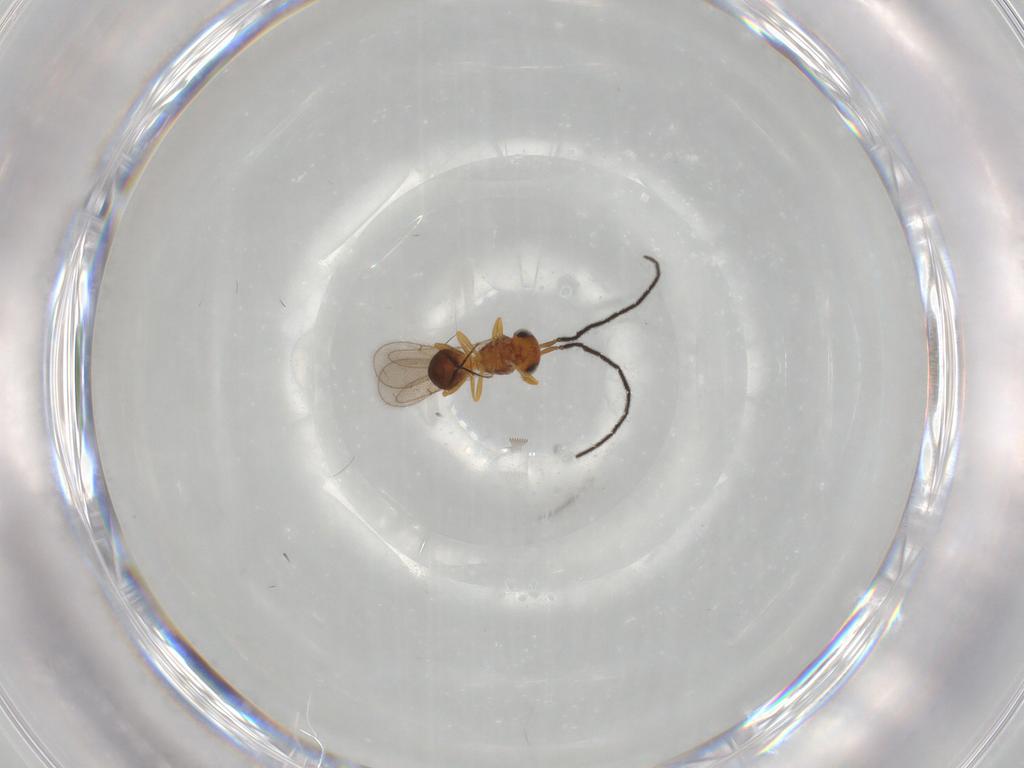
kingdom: Animalia
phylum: Arthropoda
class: Insecta
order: Hymenoptera
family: Scelionidae
